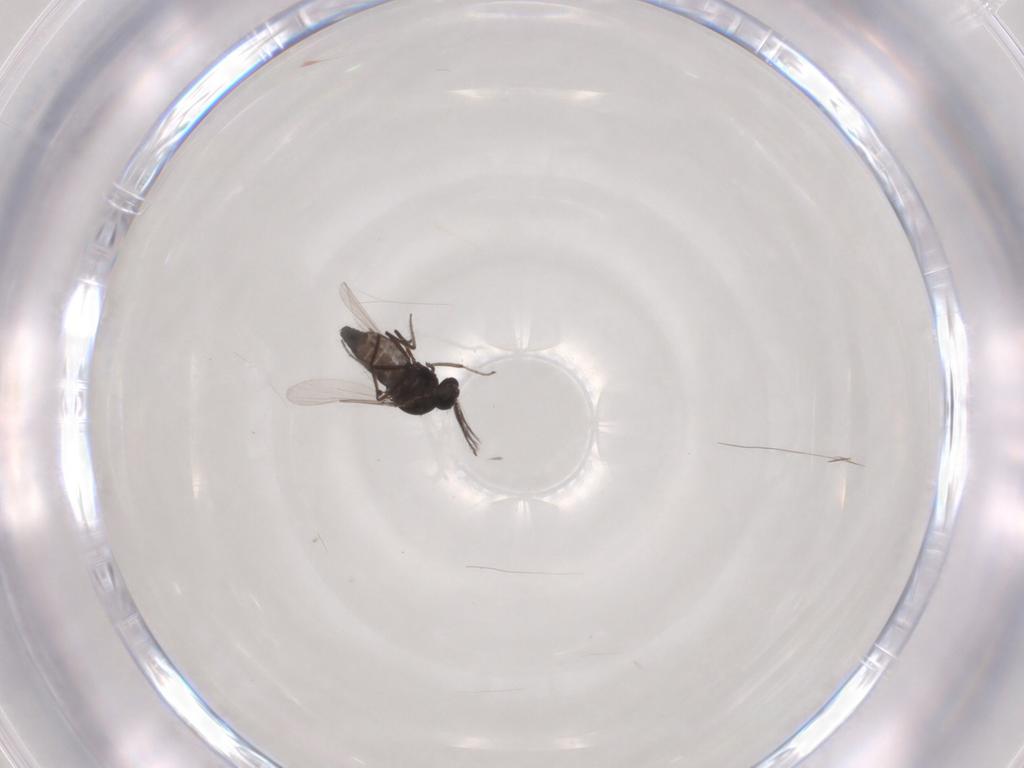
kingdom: Animalia
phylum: Arthropoda
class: Insecta
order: Diptera
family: Ceratopogonidae
